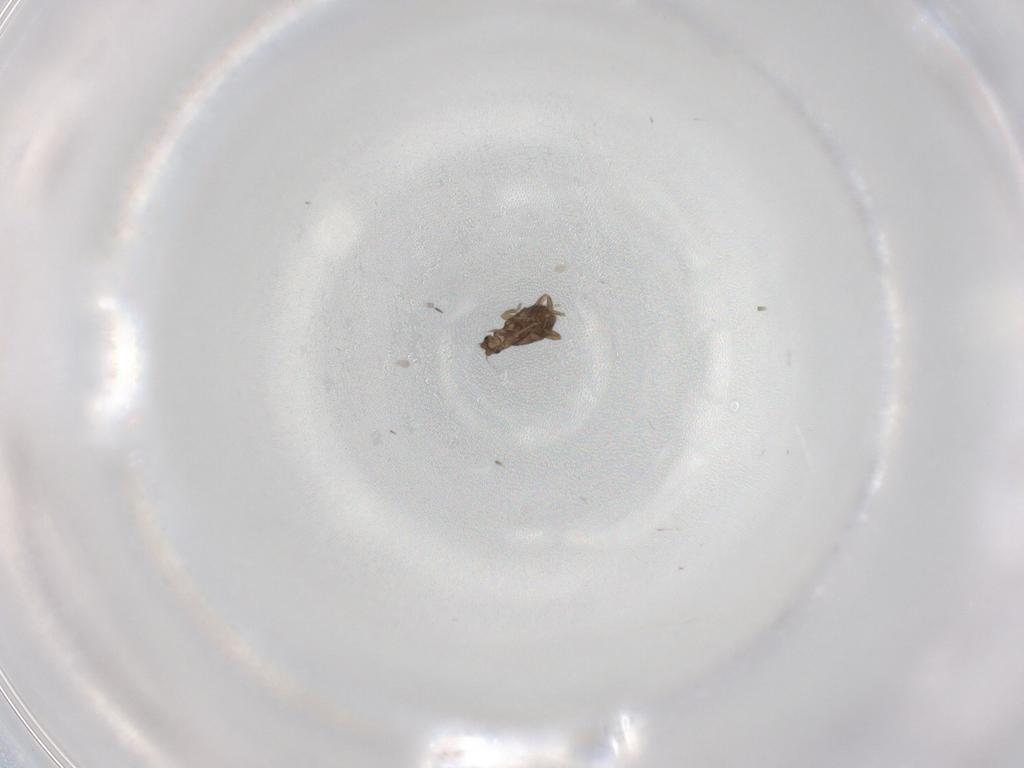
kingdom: Animalia
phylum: Arthropoda
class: Insecta
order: Diptera
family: Phoridae
